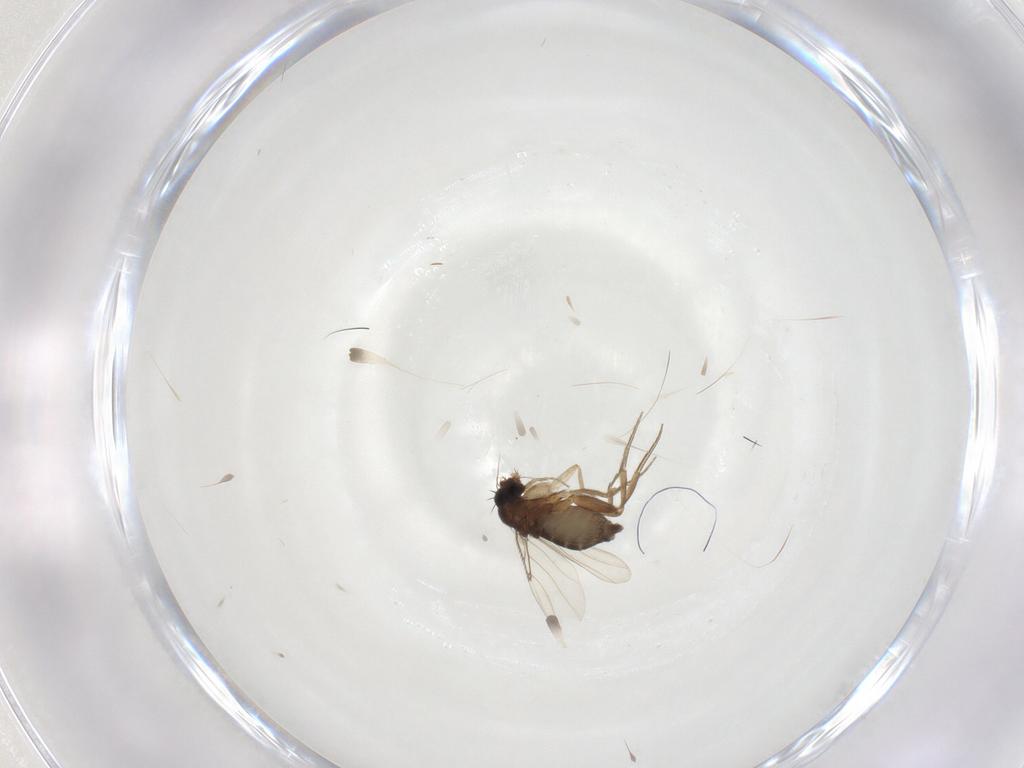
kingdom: Animalia
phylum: Arthropoda
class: Insecta
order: Diptera
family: Phoridae
